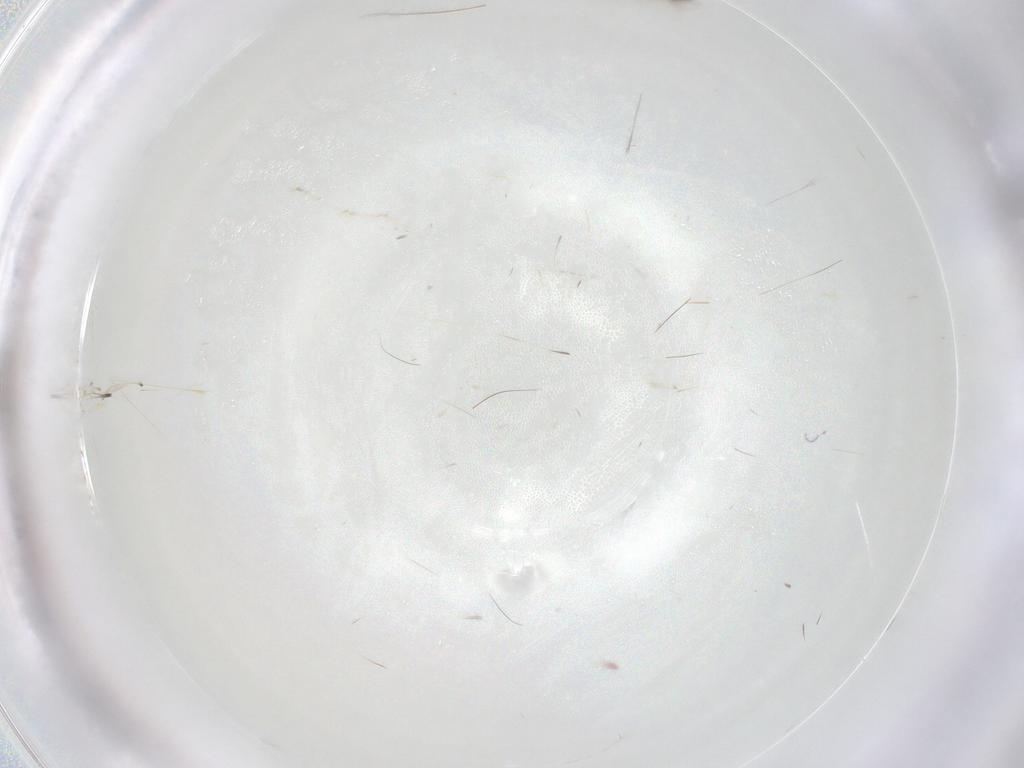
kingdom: Animalia
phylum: Arthropoda
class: Insecta
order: Diptera
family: Cecidomyiidae
